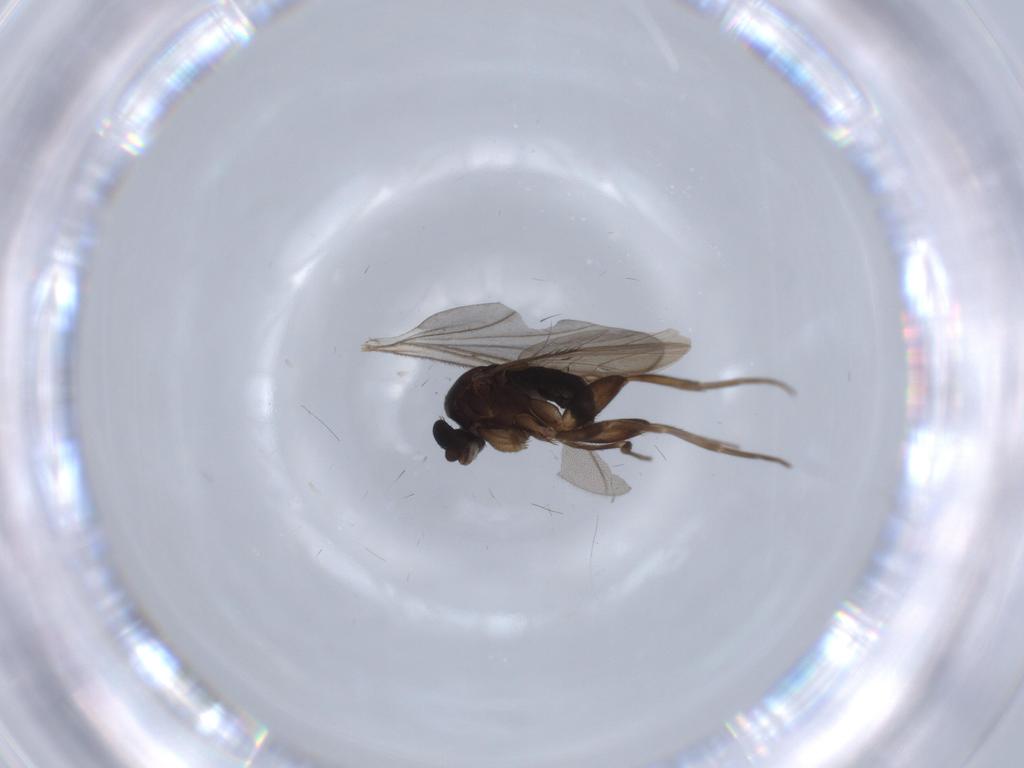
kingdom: Animalia
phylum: Arthropoda
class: Insecta
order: Diptera
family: Phoridae
